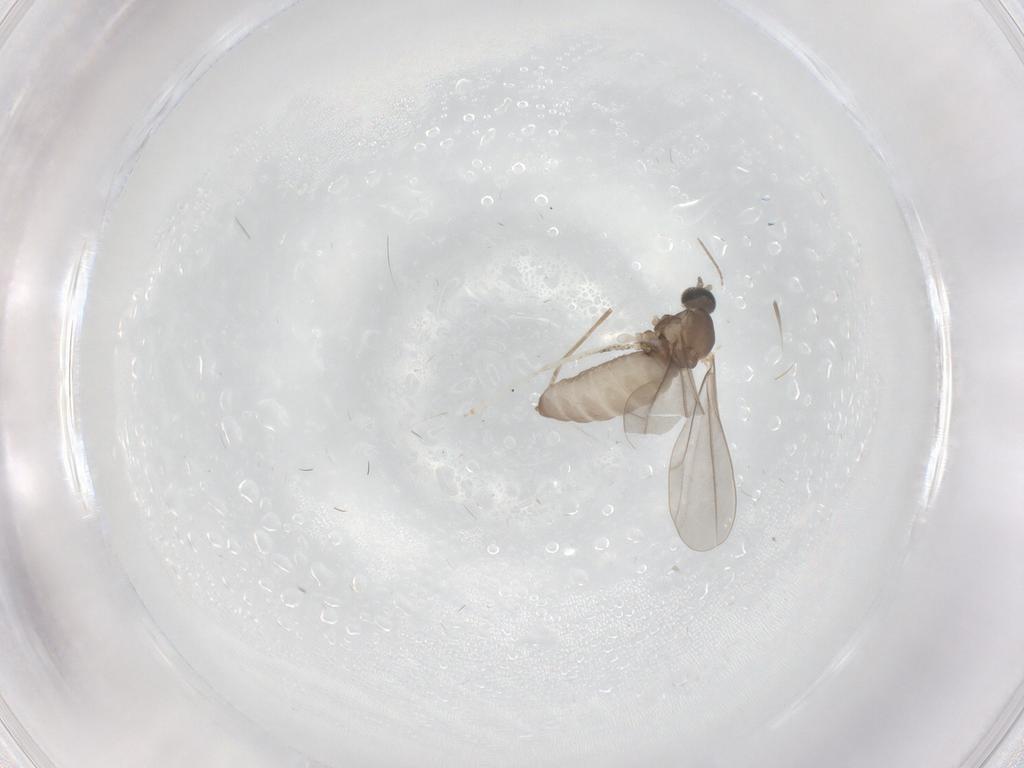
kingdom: Animalia
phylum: Arthropoda
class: Insecta
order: Diptera
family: Cecidomyiidae
